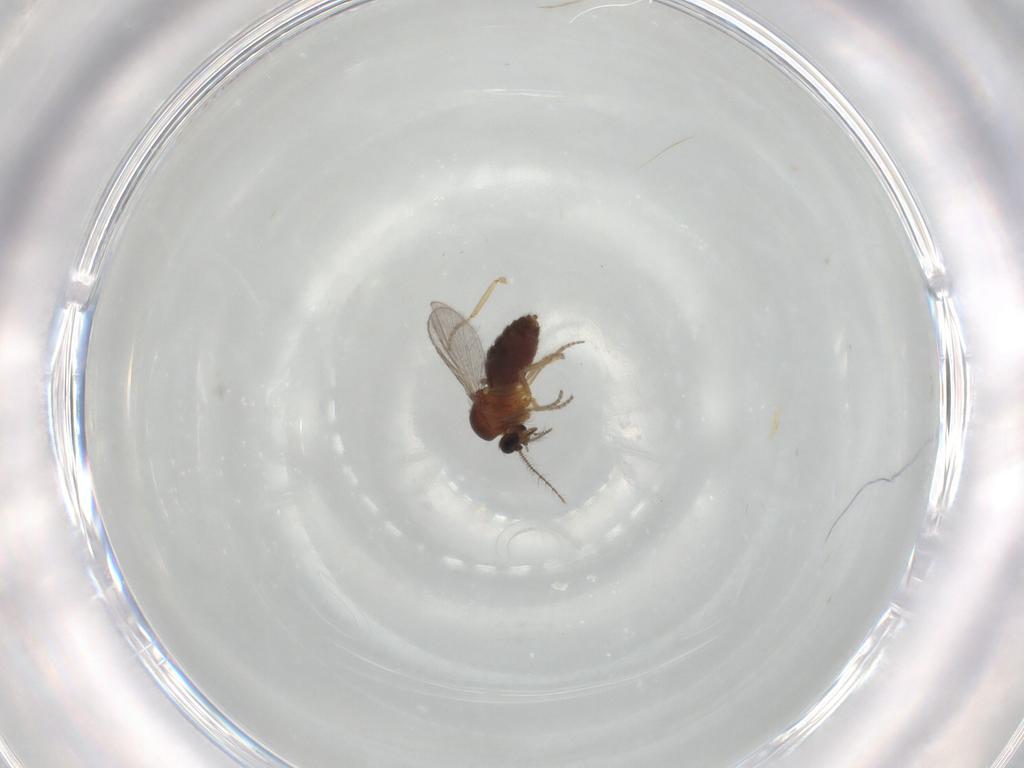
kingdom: Animalia
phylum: Arthropoda
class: Insecta
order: Diptera
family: Ceratopogonidae
